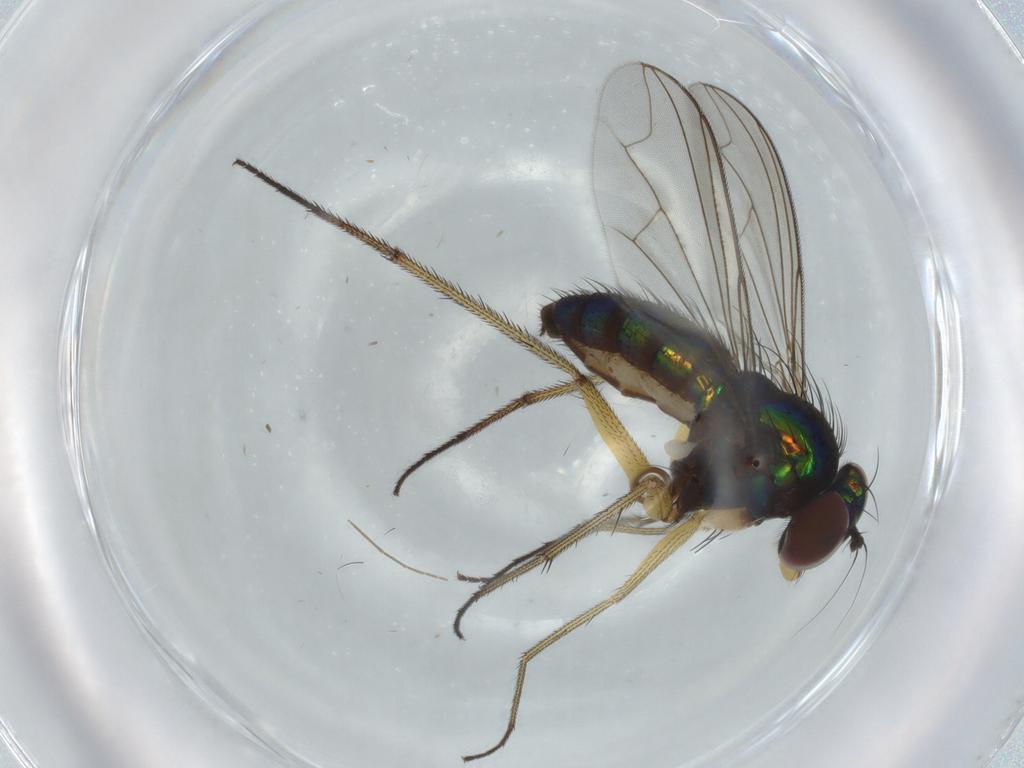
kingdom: Animalia
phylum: Arthropoda
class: Insecta
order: Diptera
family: Dolichopodidae
